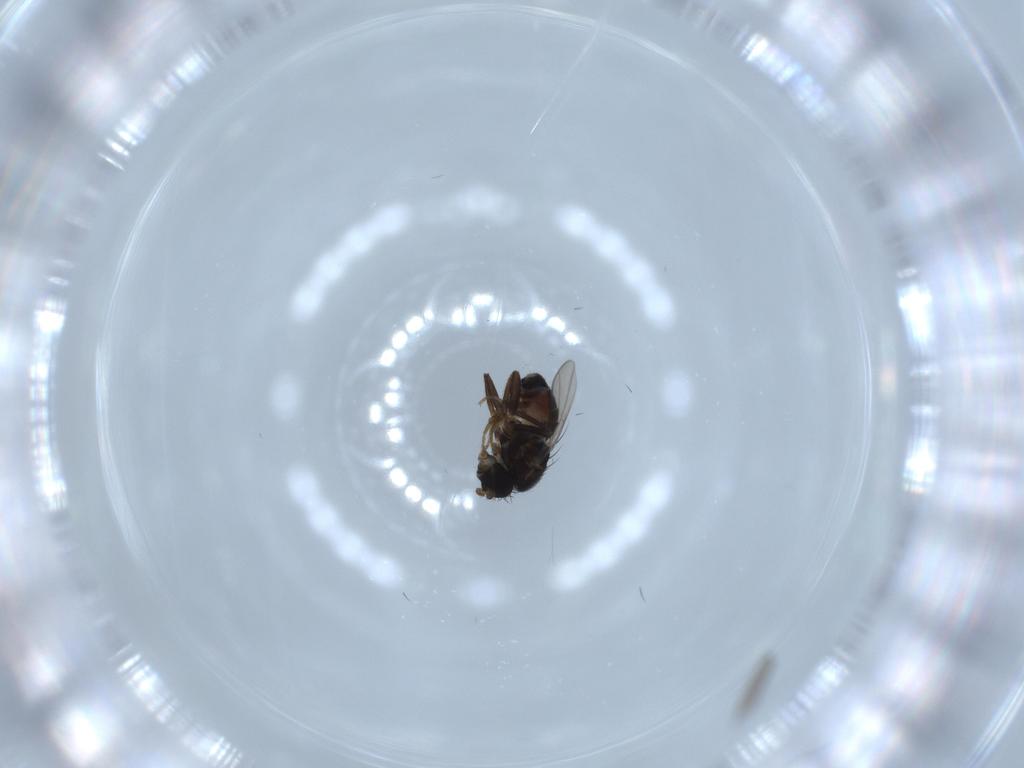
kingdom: Animalia
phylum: Arthropoda
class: Insecta
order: Diptera
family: Sphaeroceridae
